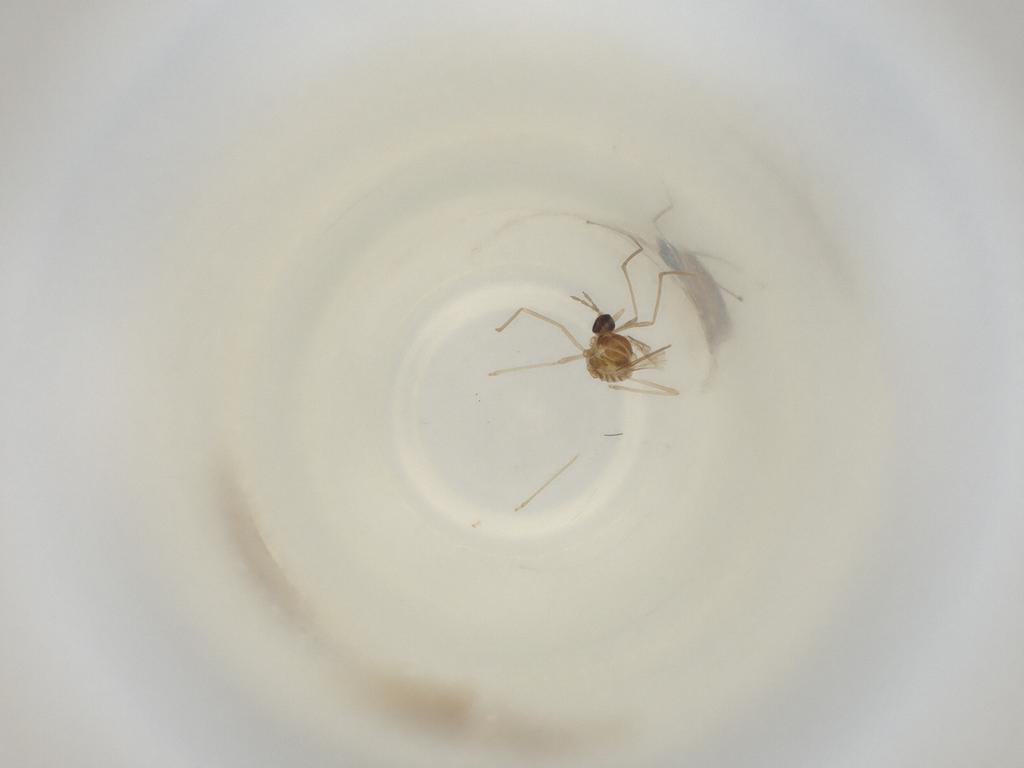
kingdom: Animalia
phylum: Arthropoda
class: Insecta
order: Diptera
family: Cecidomyiidae
